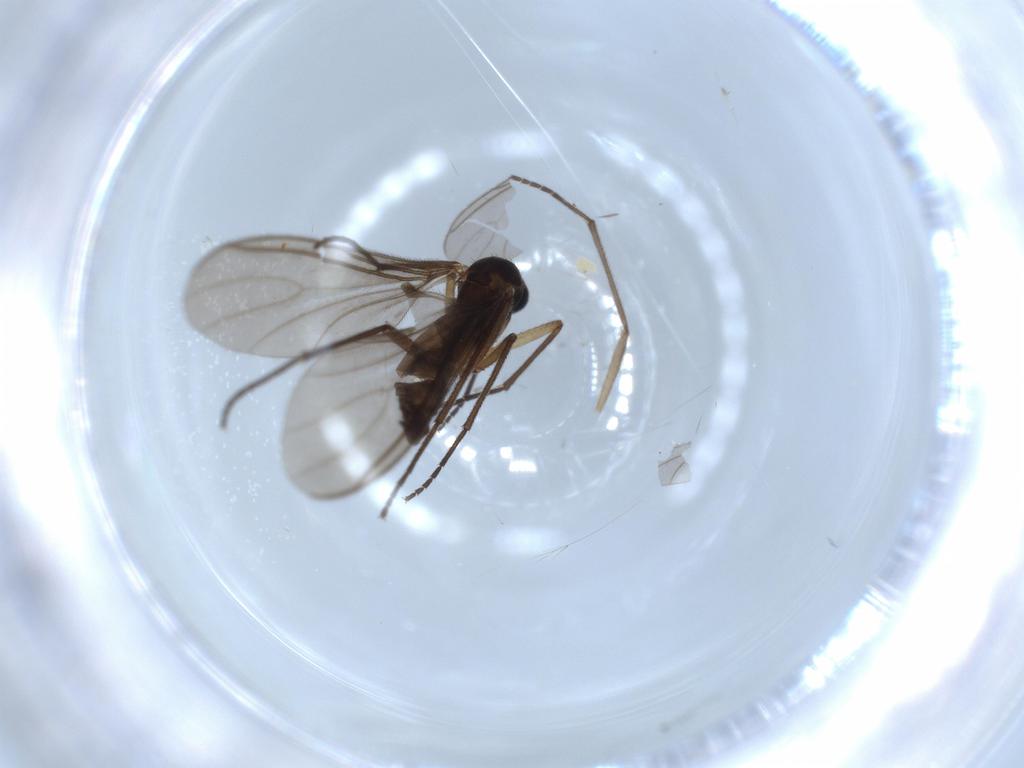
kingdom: Animalia
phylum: Arthropoda
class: Insecta
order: Diptera
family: Sciaridae
